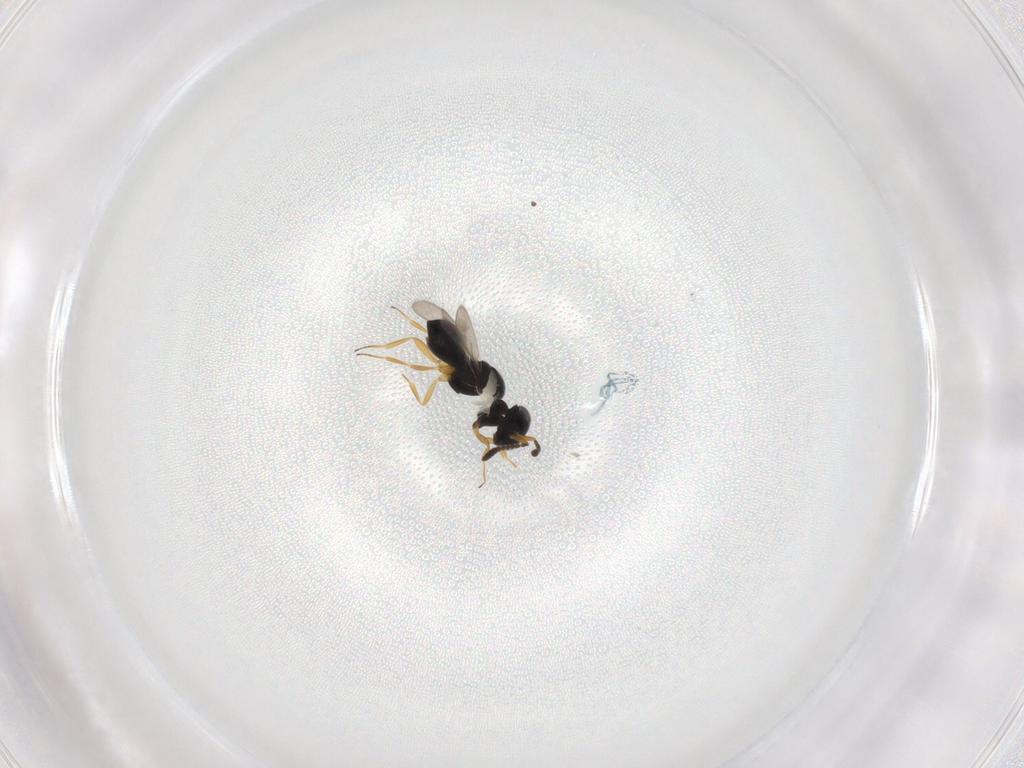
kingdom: Animalia
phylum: Arthropoda
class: Insecta
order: Hymenoptera
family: Scelionidae
